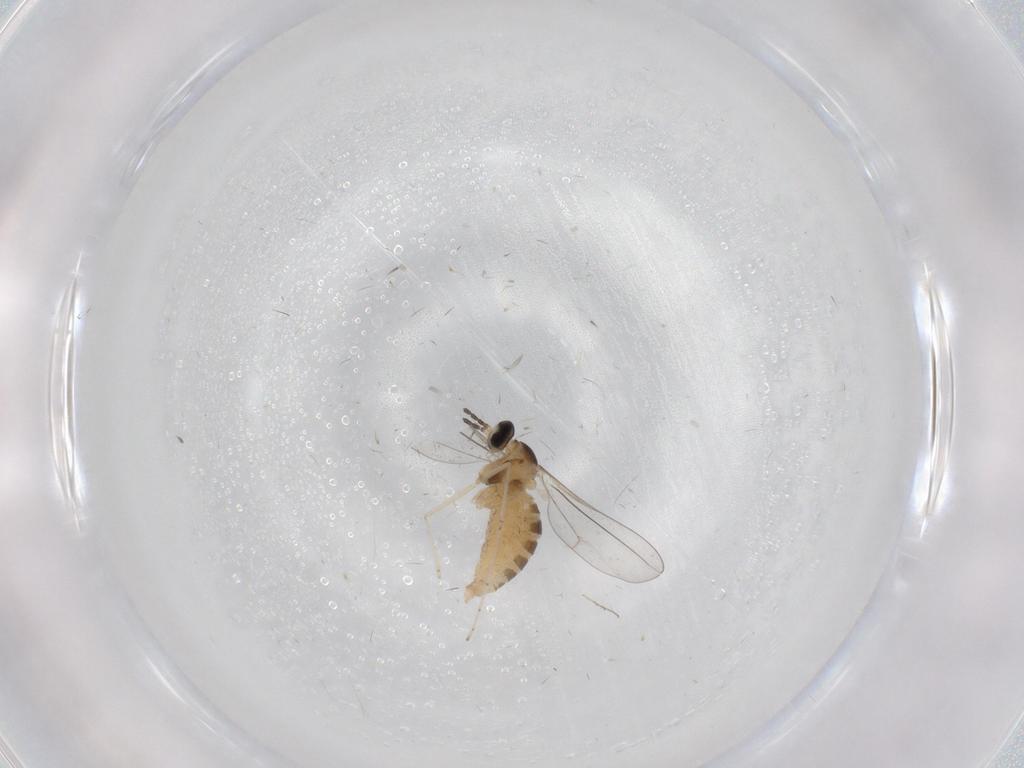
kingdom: Animalia
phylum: Arthropoda
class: Insecta
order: Diptera
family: Cecidomyiidae
